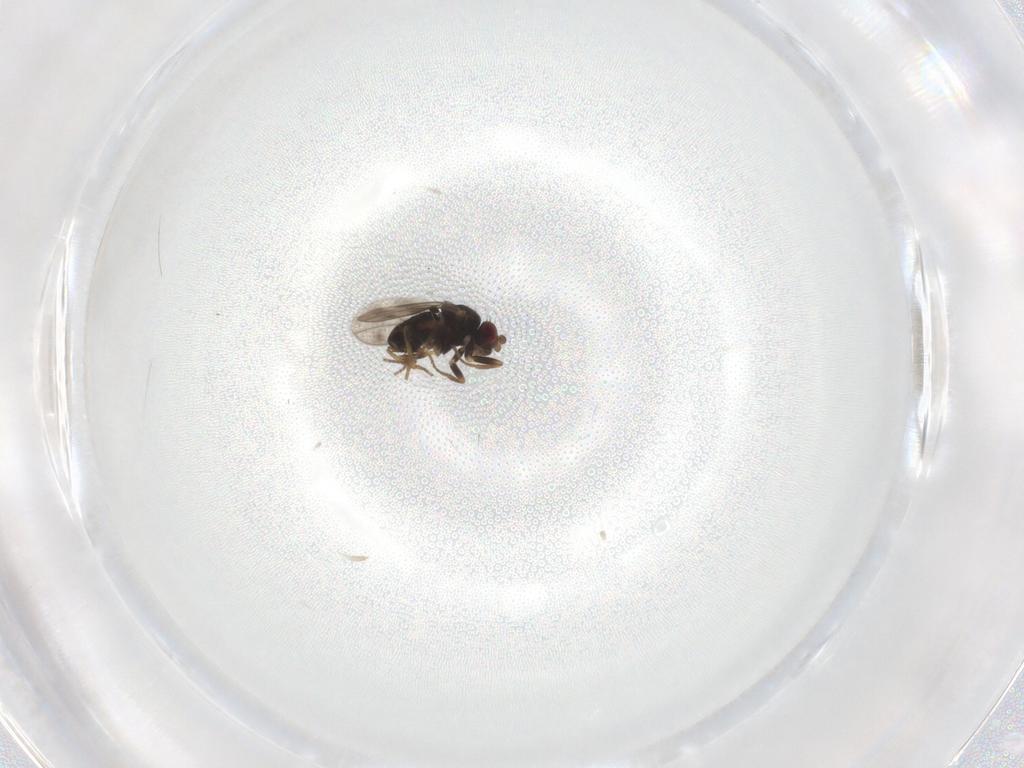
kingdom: Animalia
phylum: Arthropoda
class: Insecta
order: Diptera
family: Sphaeroceridae
